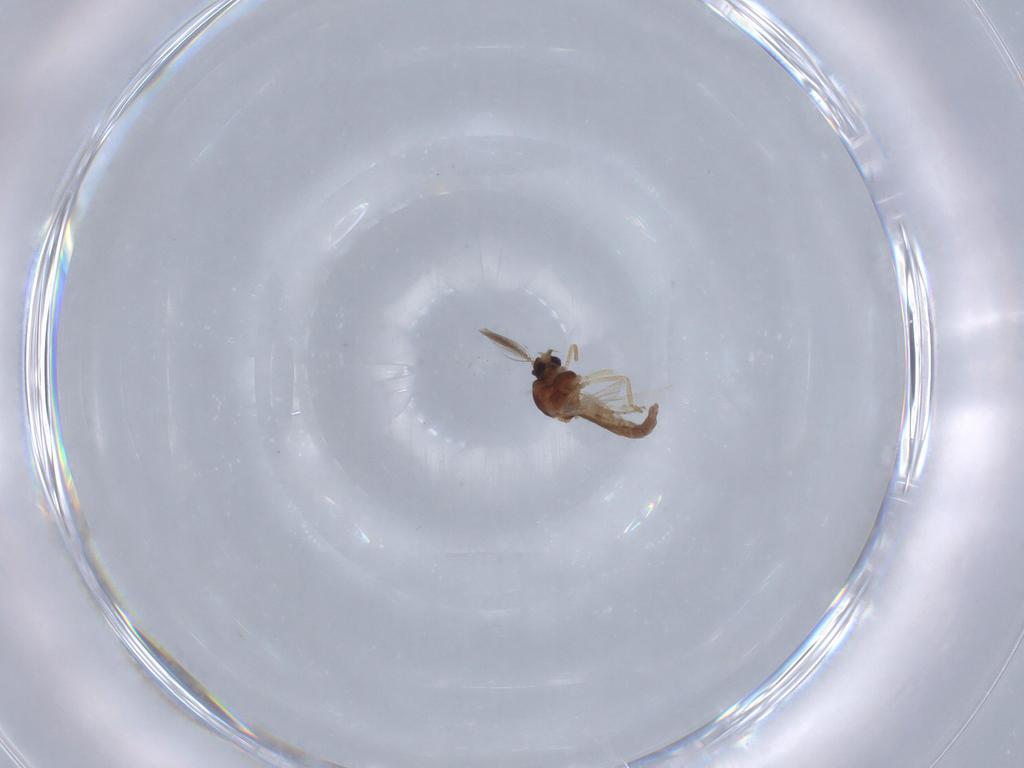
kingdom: Animalia
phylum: Arthropoda
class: Insecta
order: Diptera
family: Ceratopogonidae
